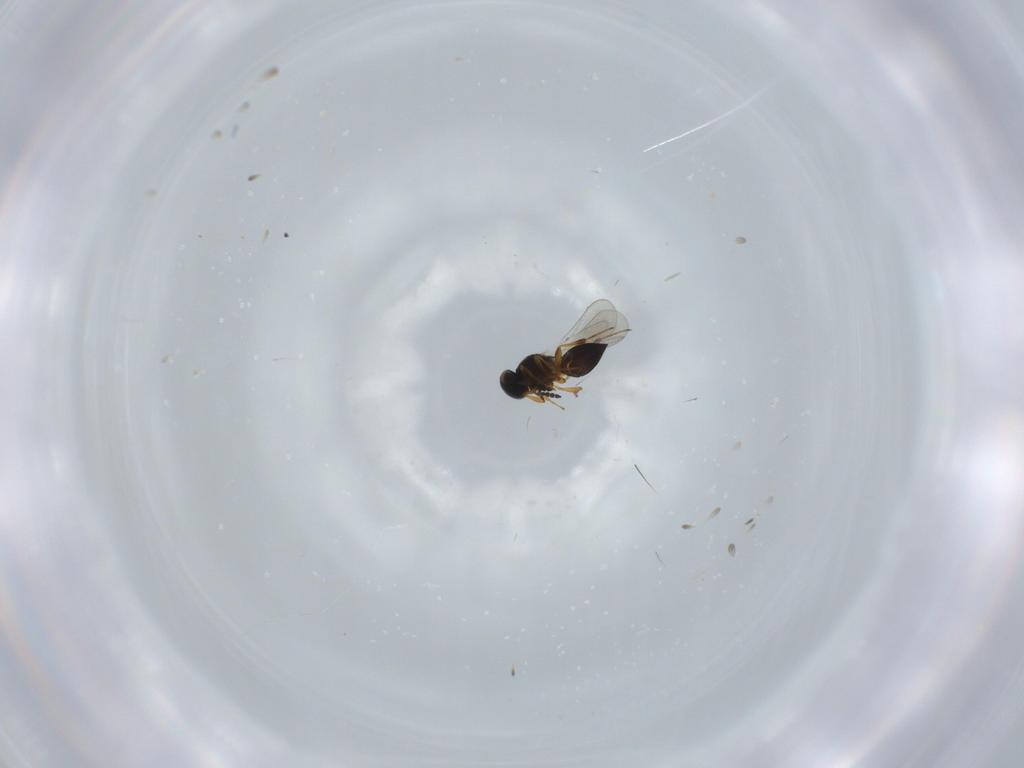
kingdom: Animalia
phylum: Arthropoda
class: Insecta
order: Hymenoptera
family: Platygastridae
